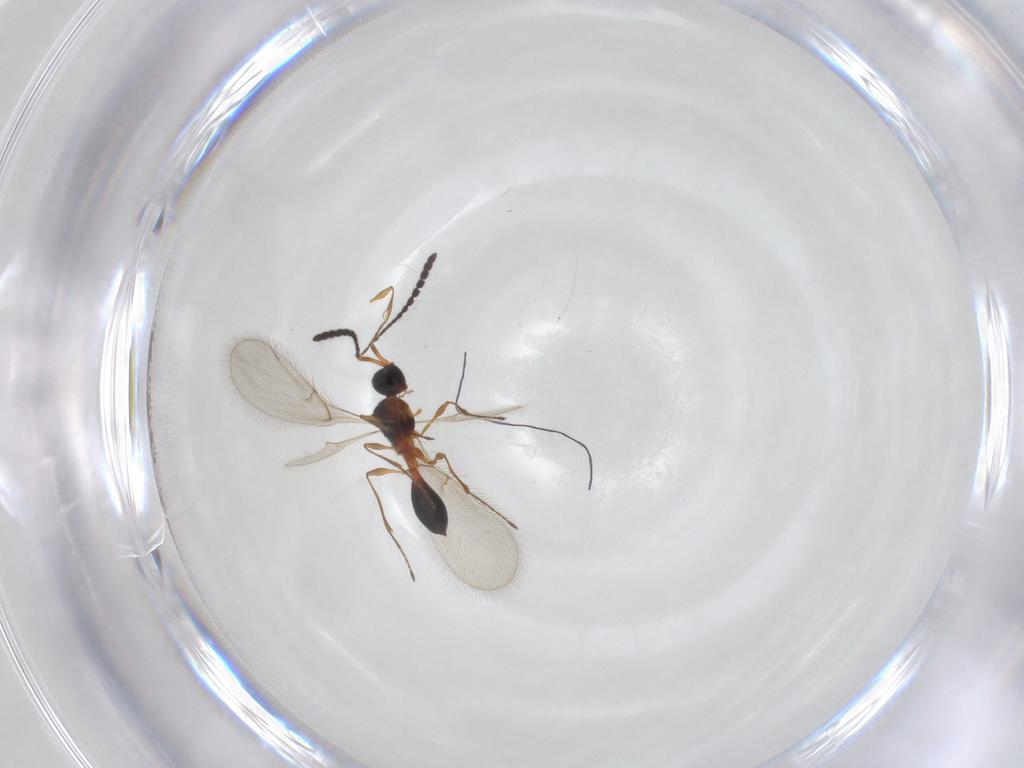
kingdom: Animalia
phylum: Arthropoda
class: Insecta
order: Hymenoptera
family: Diapriidae
